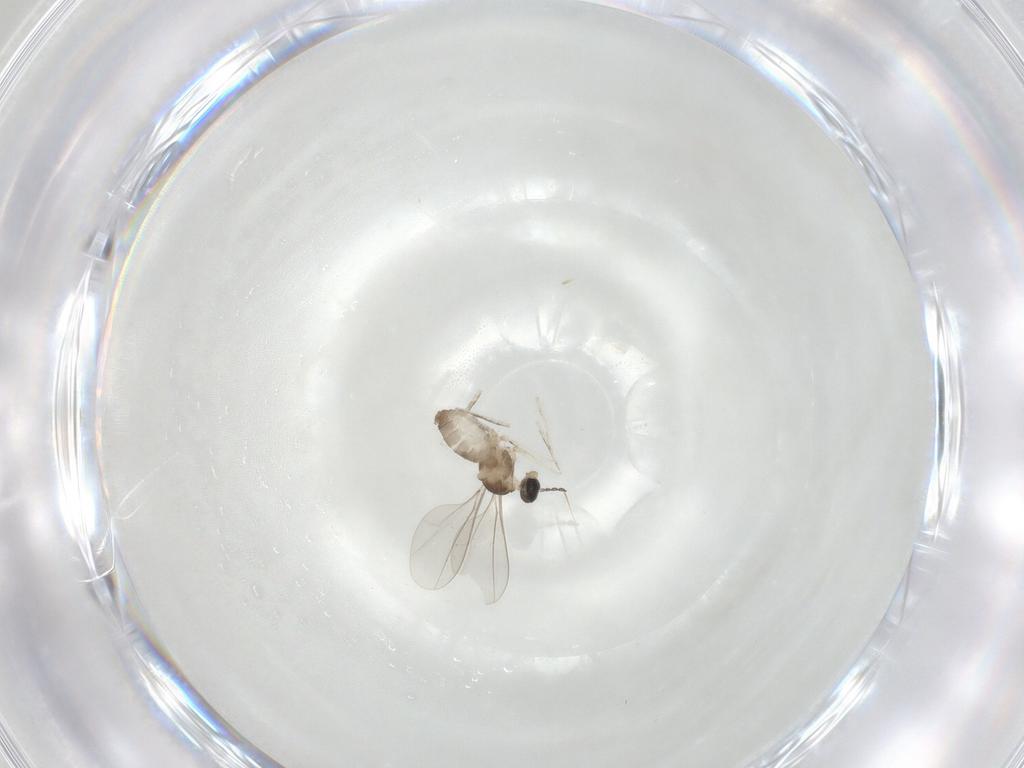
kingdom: Animalia
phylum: Arthropoda
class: Insecta
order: Diptera
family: Cecidomyiidae
